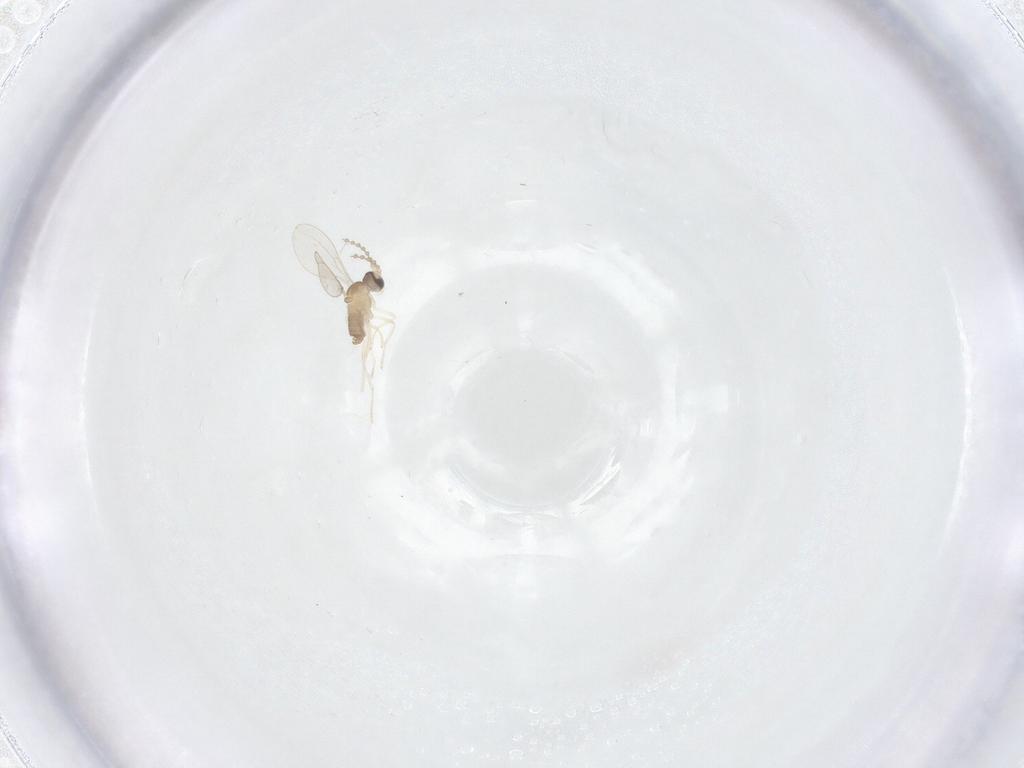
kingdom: Animalia
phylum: Arthropoda
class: Insecta
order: Diptera
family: Cecidomyiidae
